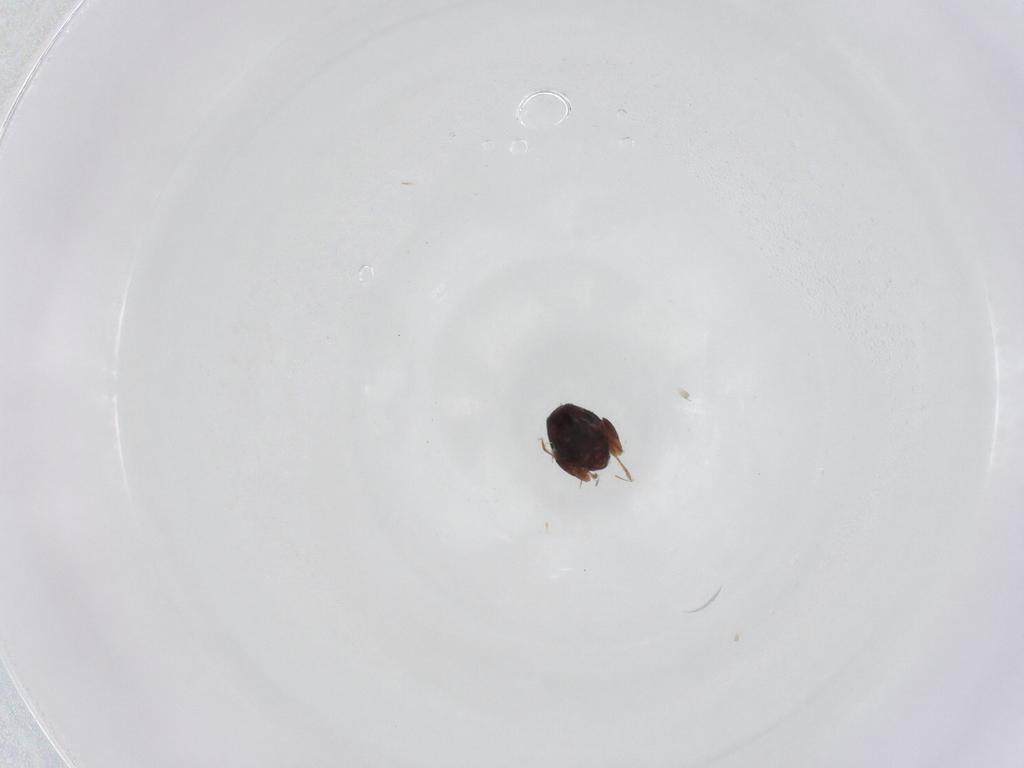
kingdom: Animalia
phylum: Arthropoda
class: Arachnida
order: Sarcoptiformes
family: Galumnidae
